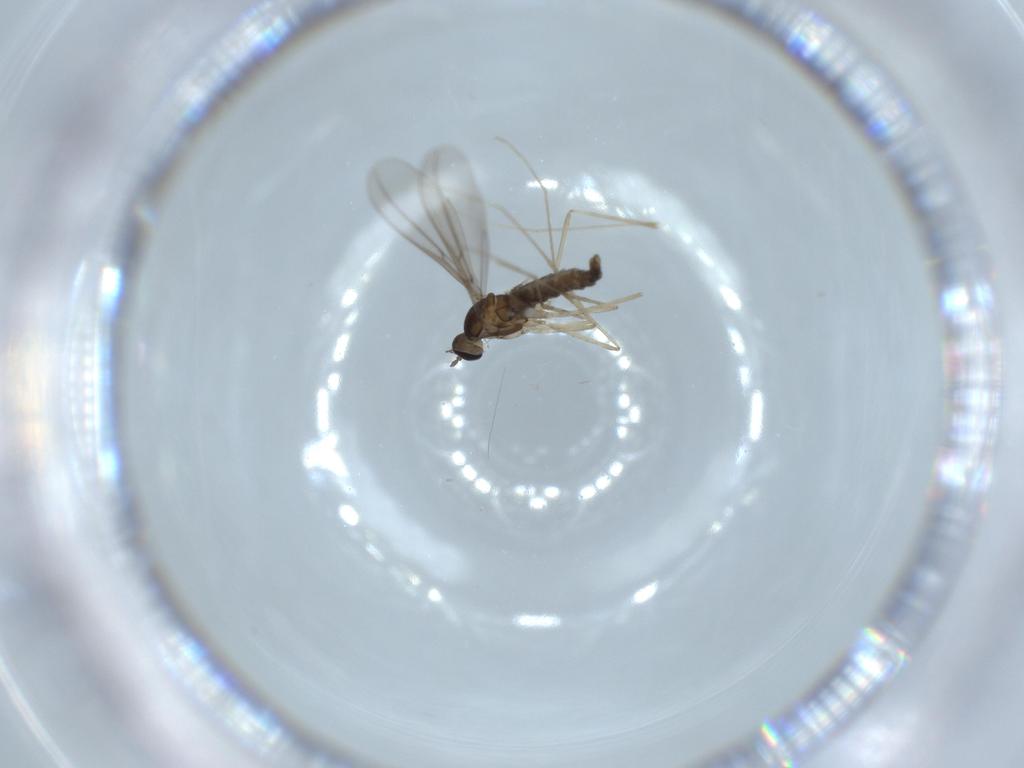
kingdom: Animalia
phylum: Arthropoda
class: Insecta
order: Diptera
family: Cecidomyiidae
